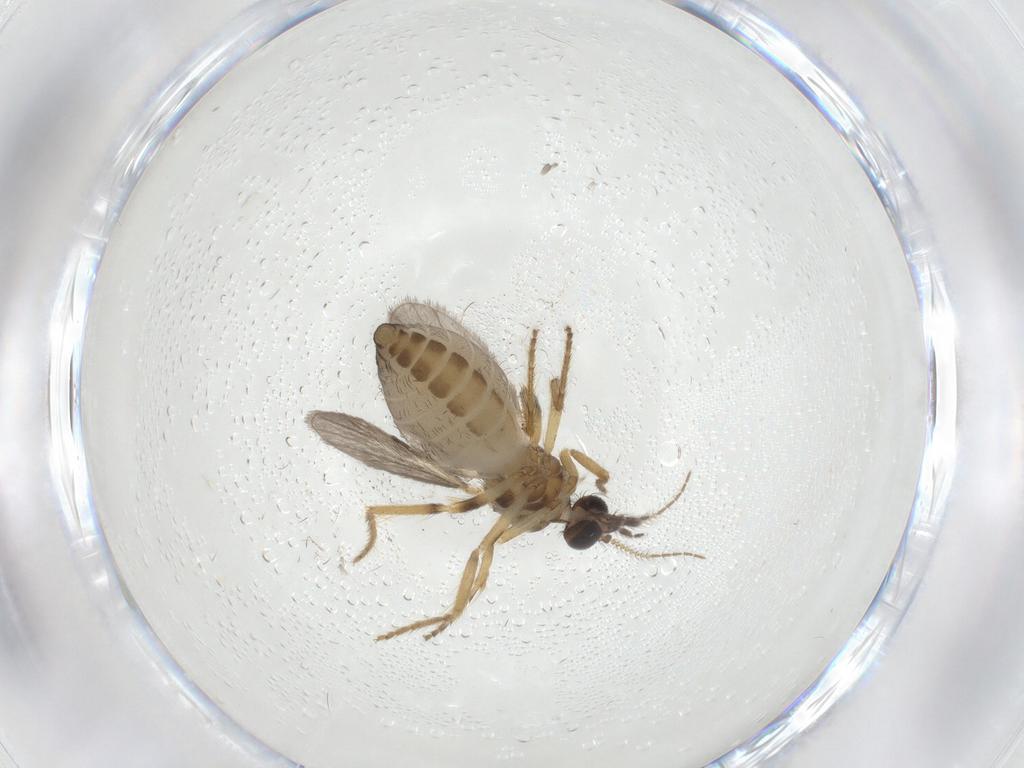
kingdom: Animalia
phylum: Arthropoda
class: Insecta
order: Diptera
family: Ceratopogonidae
